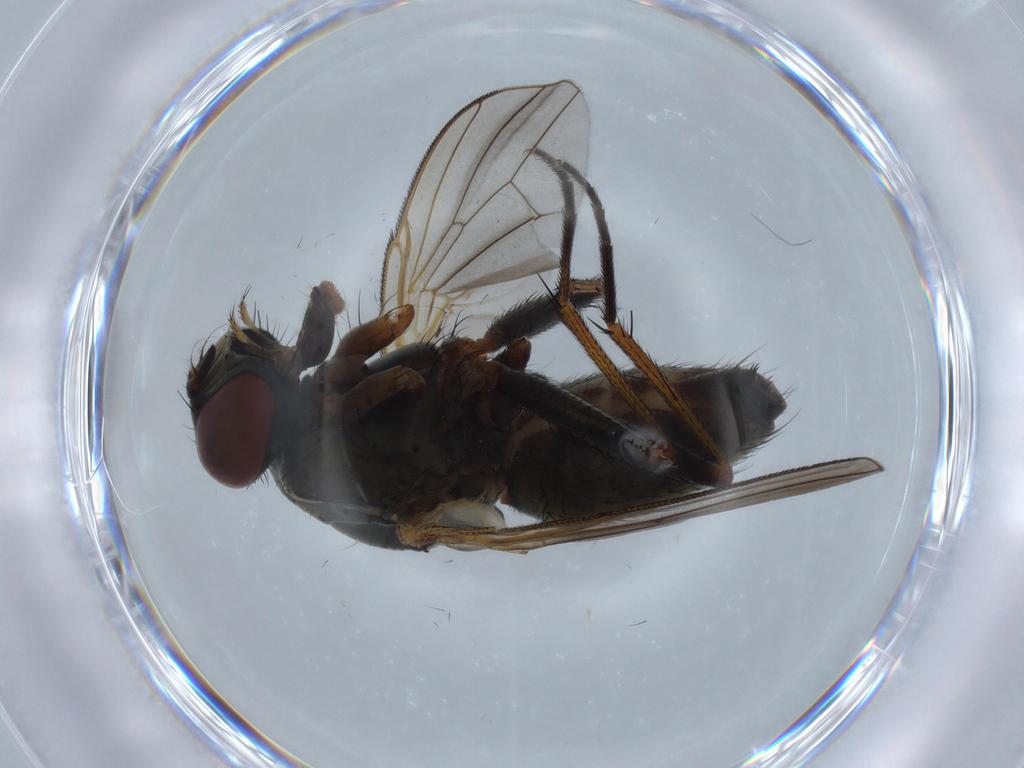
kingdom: Animalia
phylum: Arthropoda
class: Insecta
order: Diptera
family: Muscidae
